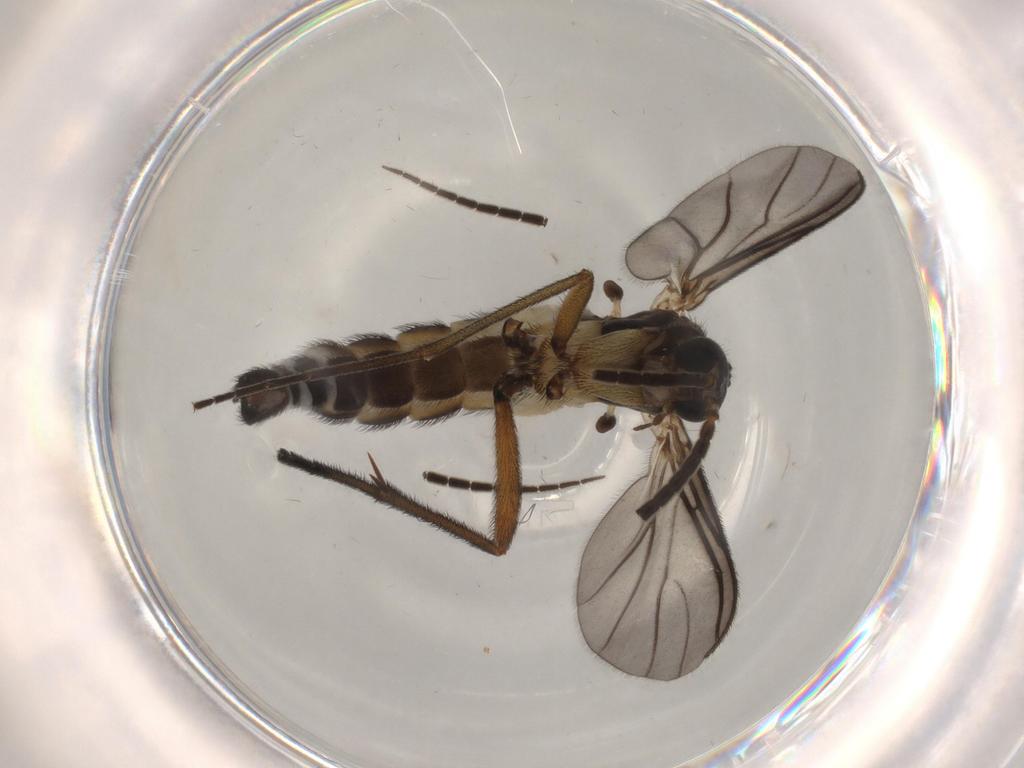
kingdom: Animalia
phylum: Arthropoda
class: Insecta
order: Diptera
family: Sciaridae
